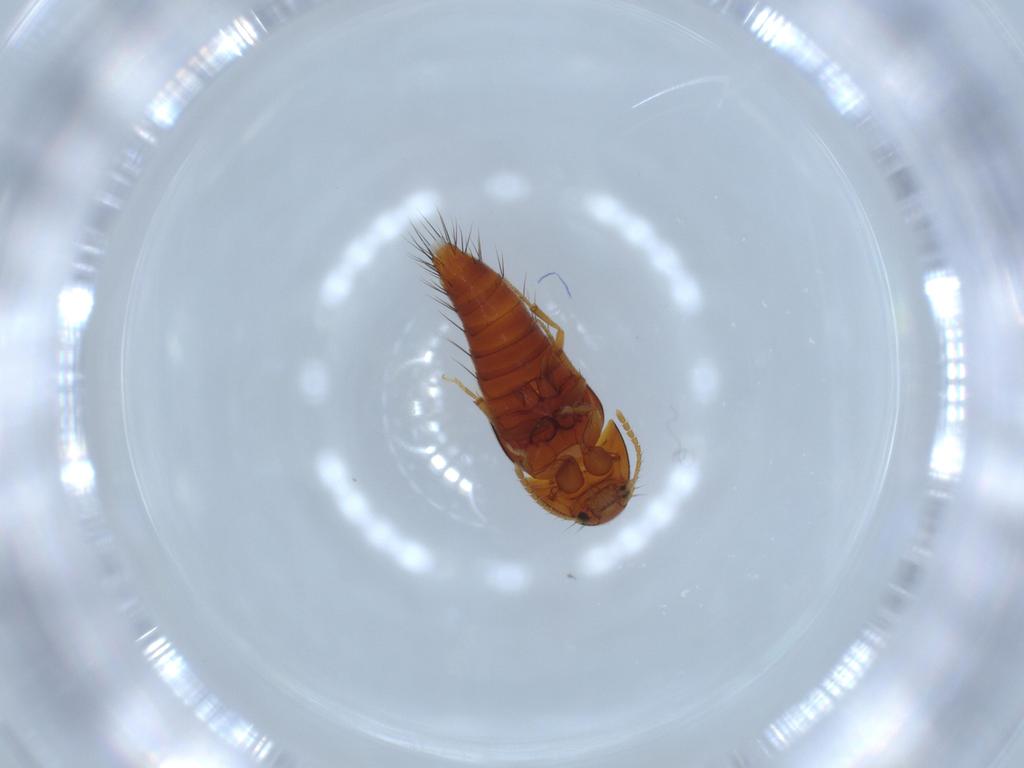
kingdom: Animalia
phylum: Arthropoda
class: Insecta
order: Coleoptera
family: Staphylinidae
